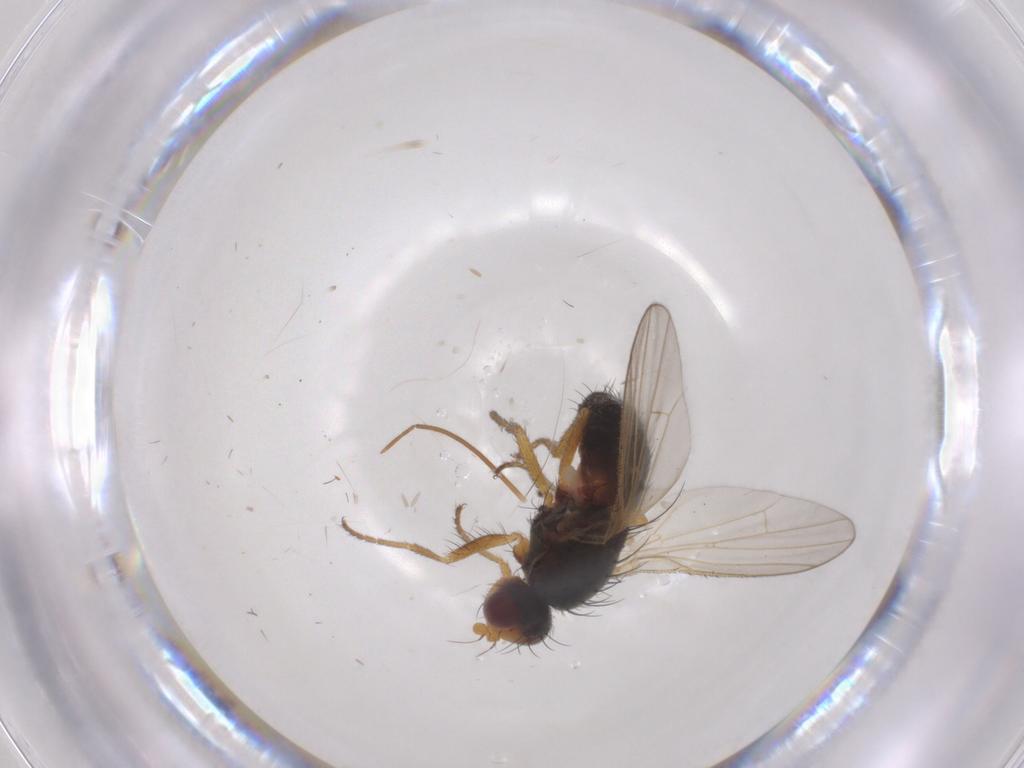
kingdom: Animalia
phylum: Arthropoda
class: Insecta
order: Diptera
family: Heleomyzidae
